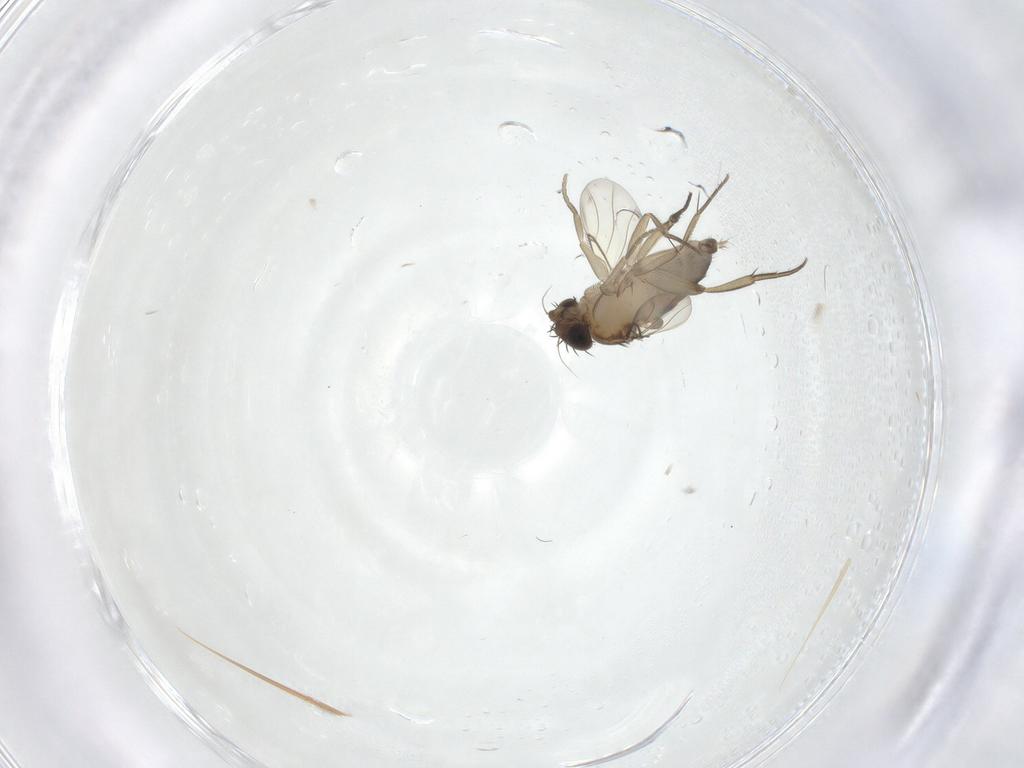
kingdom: Animalia
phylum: Arthropoda
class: Insecta
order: Diptera
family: Phoridae
